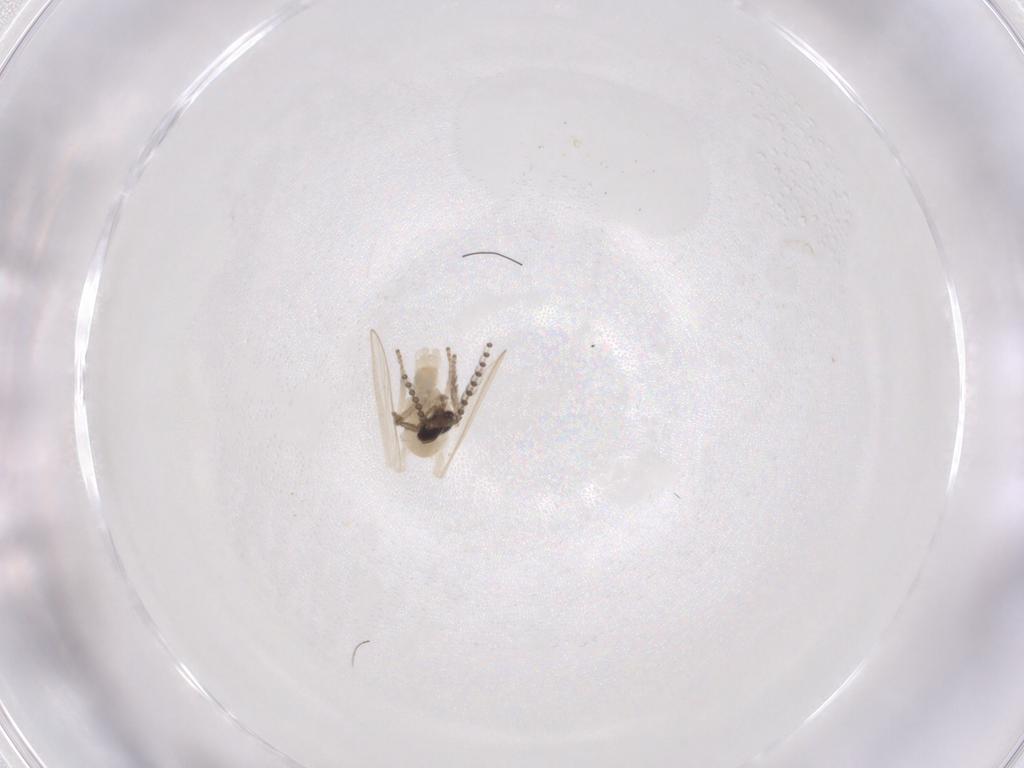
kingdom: Animalia
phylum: Arthropoda
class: Insecta
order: Diptera
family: Psychodidae
